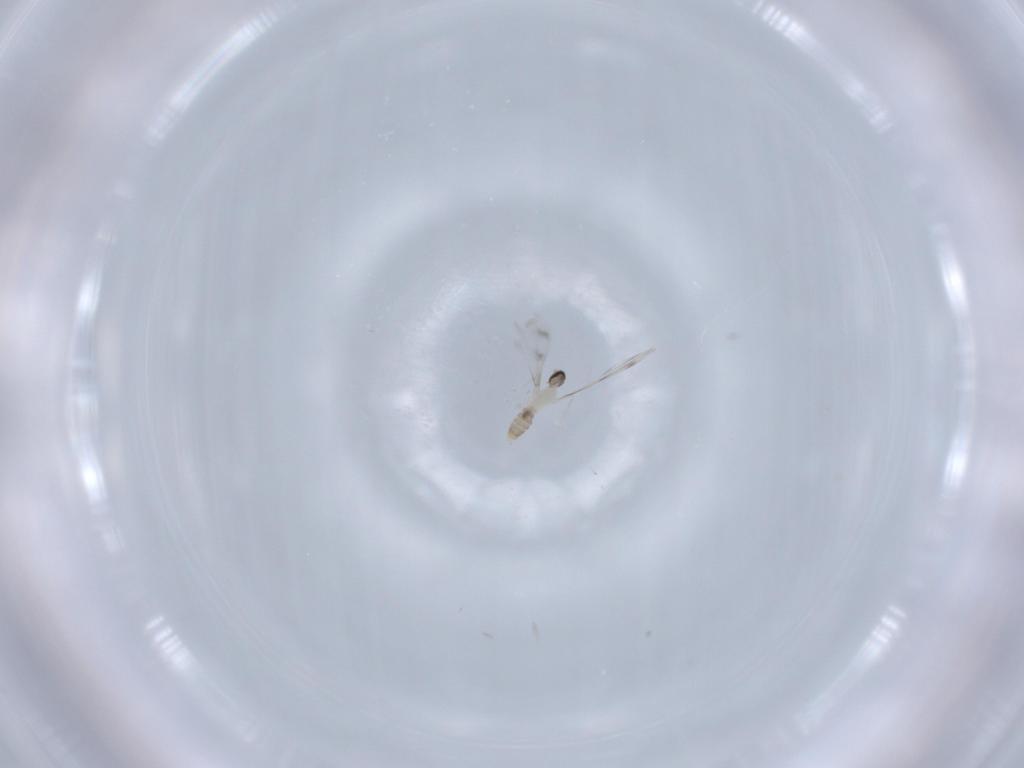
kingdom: Animalia
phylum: Arthropoda
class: Insecta
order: Diptera
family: Cecidomyiidae
